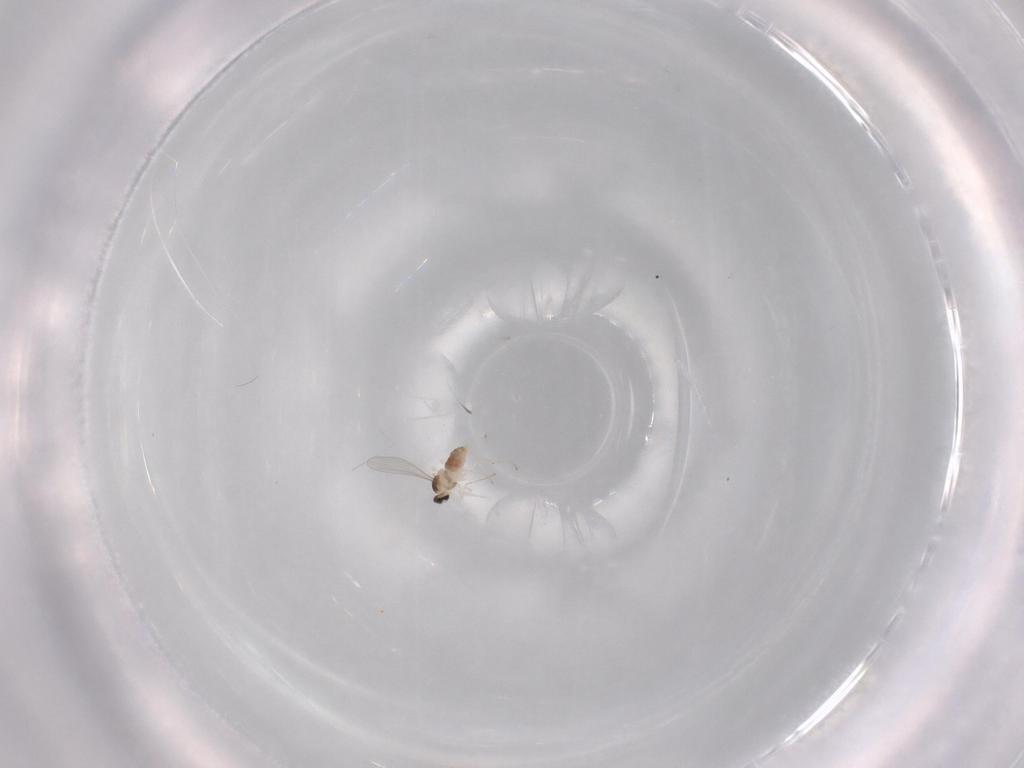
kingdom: Animalia
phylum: Arthropoda
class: Insecta
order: Diptera
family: Cecidomyiidae
